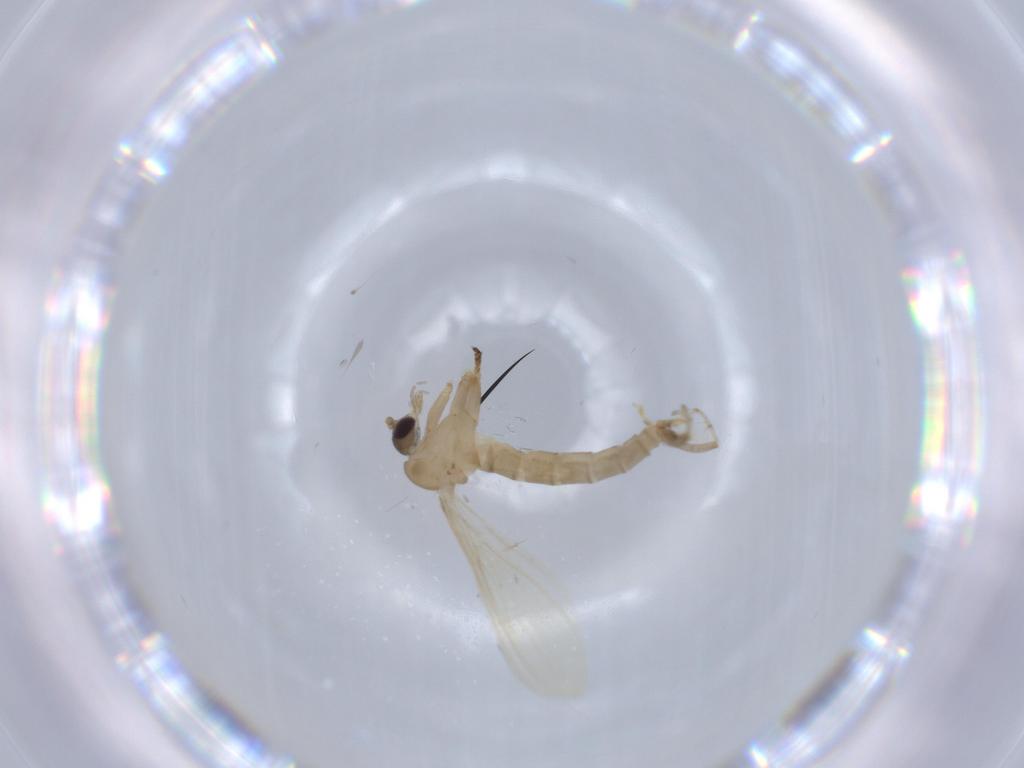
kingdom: Animalia
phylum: Arthropoda
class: Insecta
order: Diptera
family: Psychodidae
